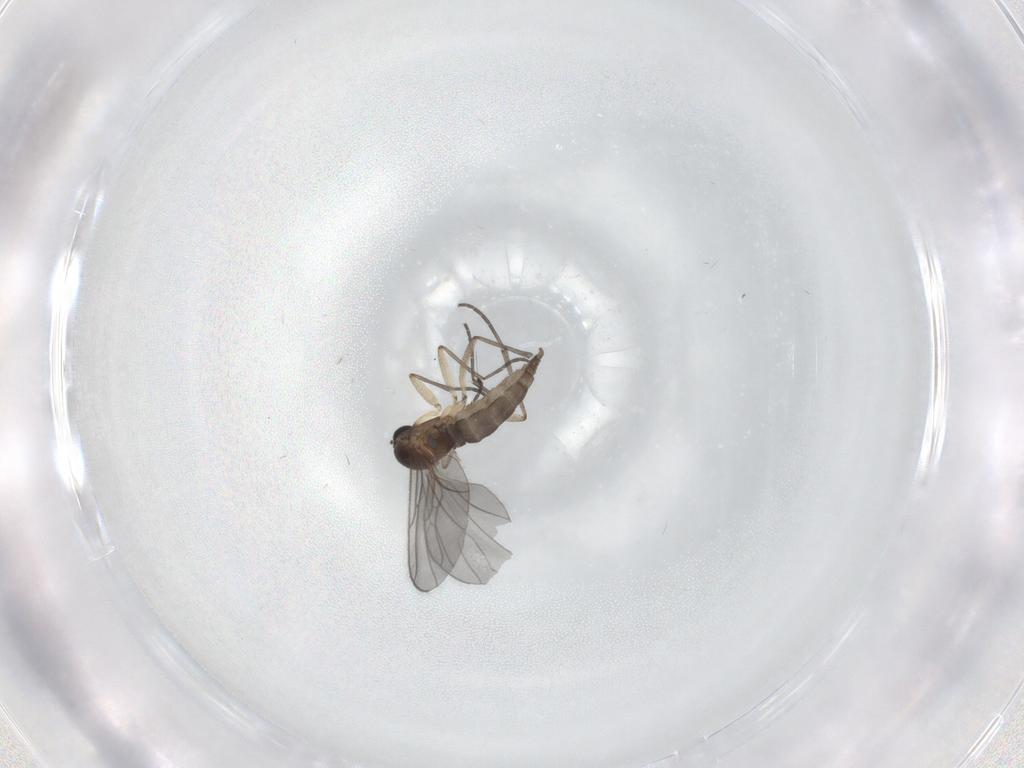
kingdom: Animalia
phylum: Arthropoda
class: Insecta
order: Diptera
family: Sciaridae
